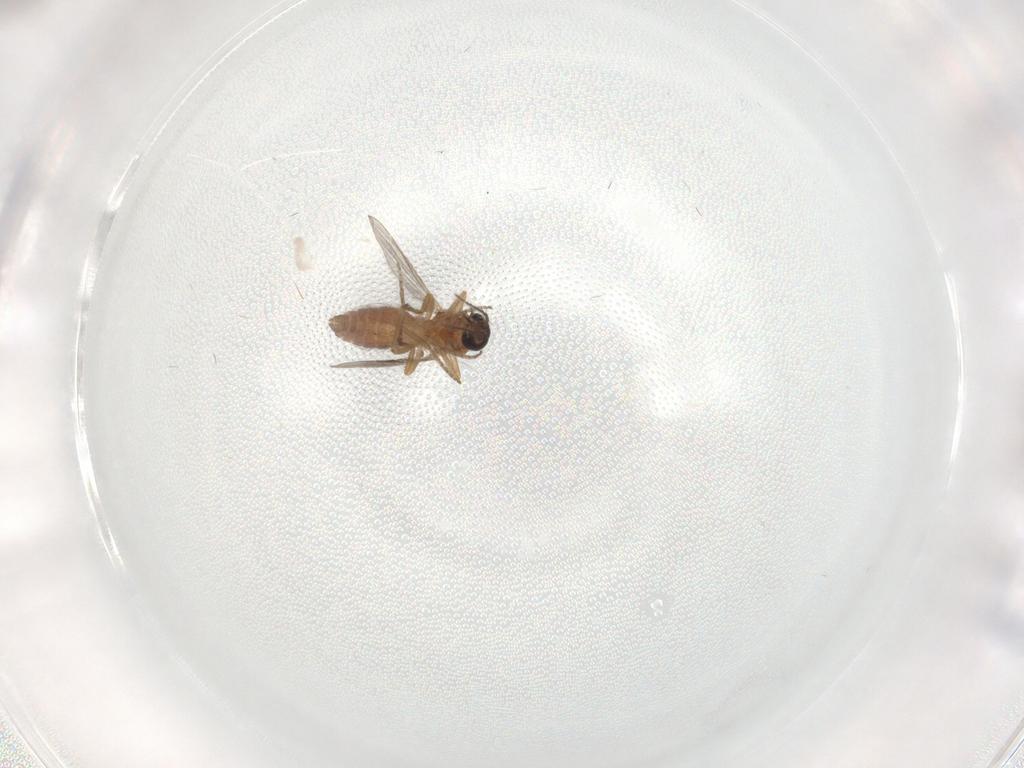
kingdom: Animalia
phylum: Arthropoda
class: Insecta
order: Diptera
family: Ceratopogonidae
